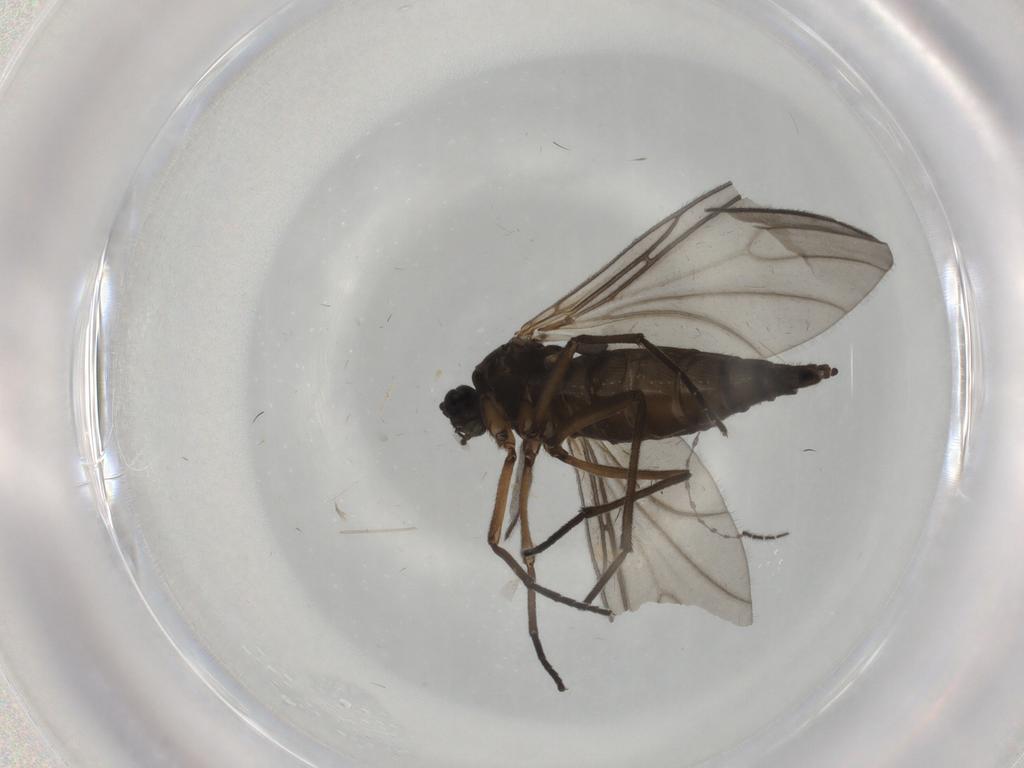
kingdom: Animalia
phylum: Arthropoda
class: Insecta
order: Diptera
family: Sciaridae
